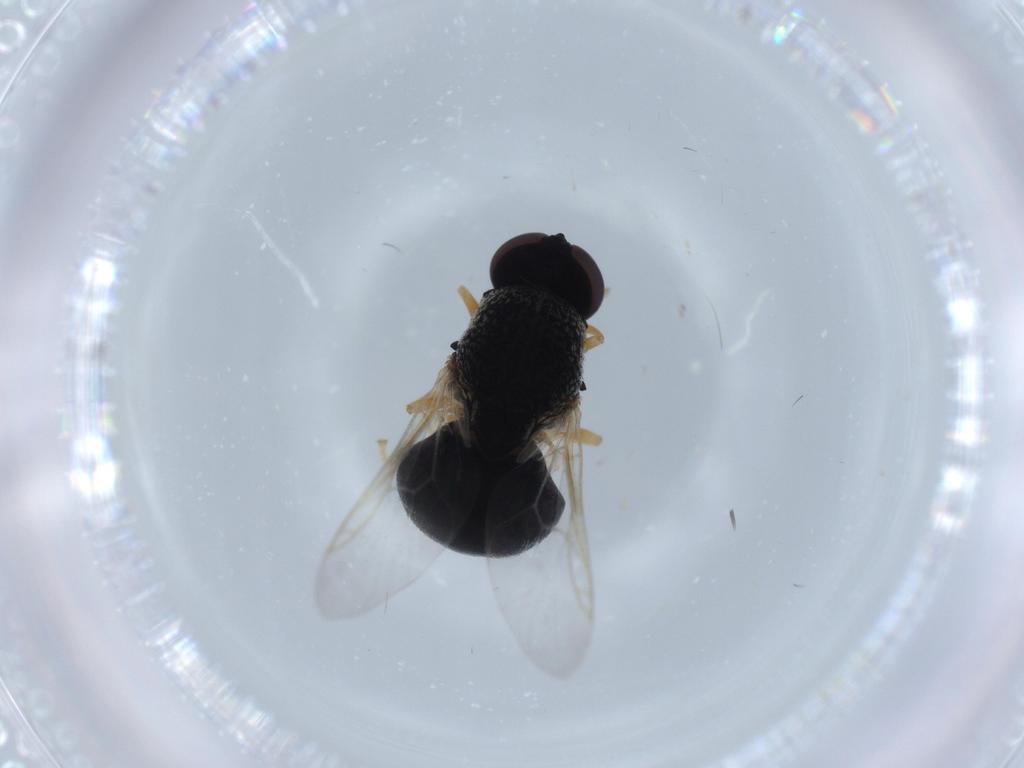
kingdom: Animalia
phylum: Arthropoda
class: Insecta
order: Diptera
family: Stratiomyidae
